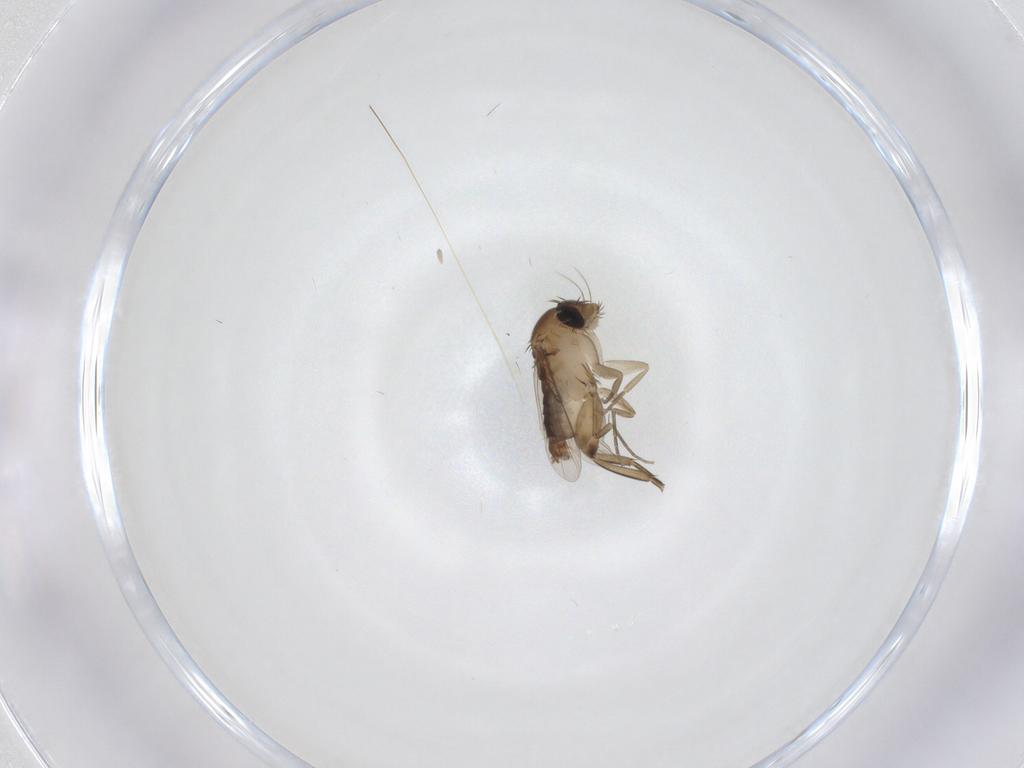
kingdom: Animalia
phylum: Arthropoda
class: Insecta
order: Diptera
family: Phoridae
